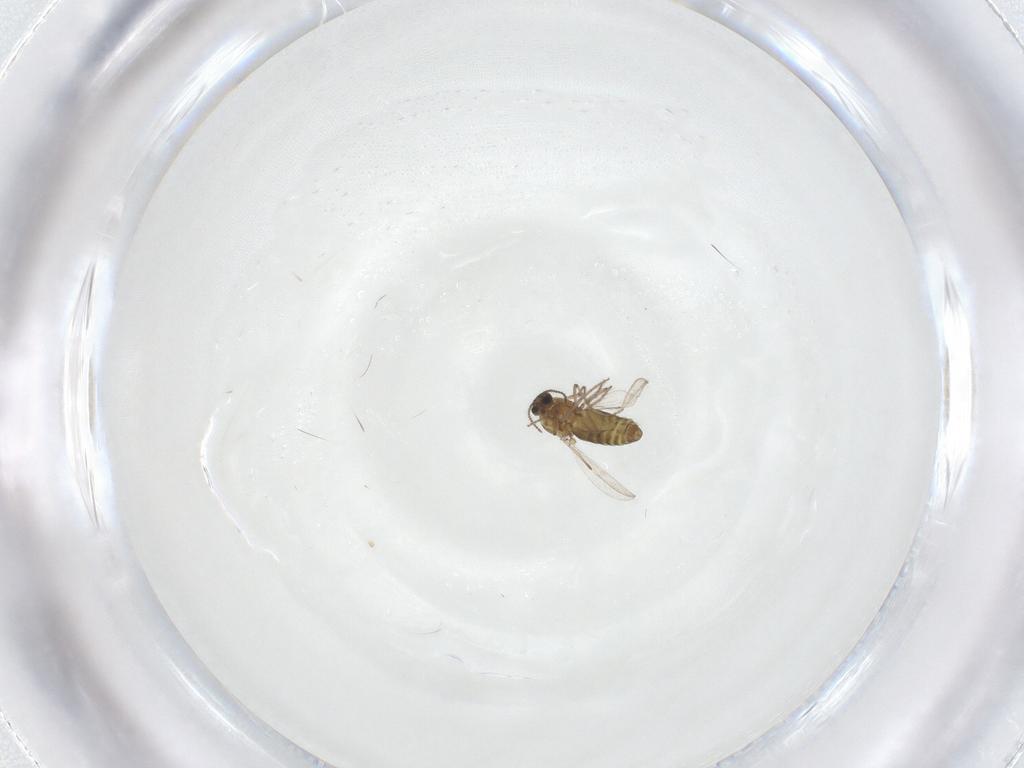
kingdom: Animalia
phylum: Arthropoda
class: Insecta
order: Diptera
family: Ceratopogonidae
